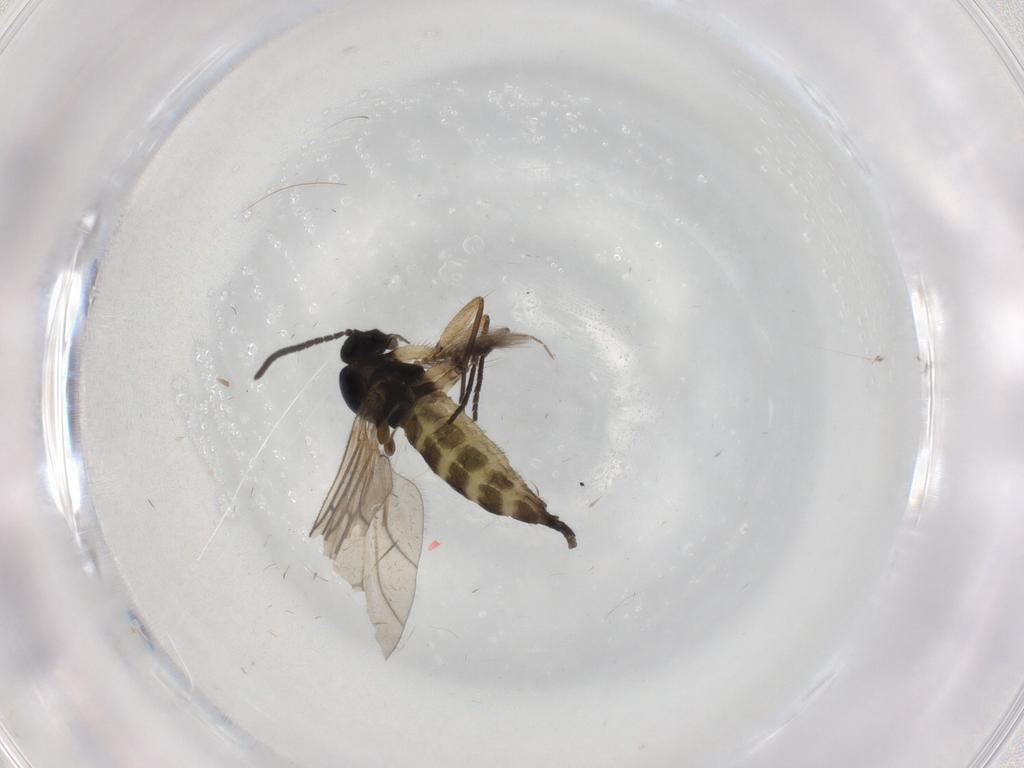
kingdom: Animalia
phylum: Arthropoda
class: Insecta
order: Diptera
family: Sciaridae
